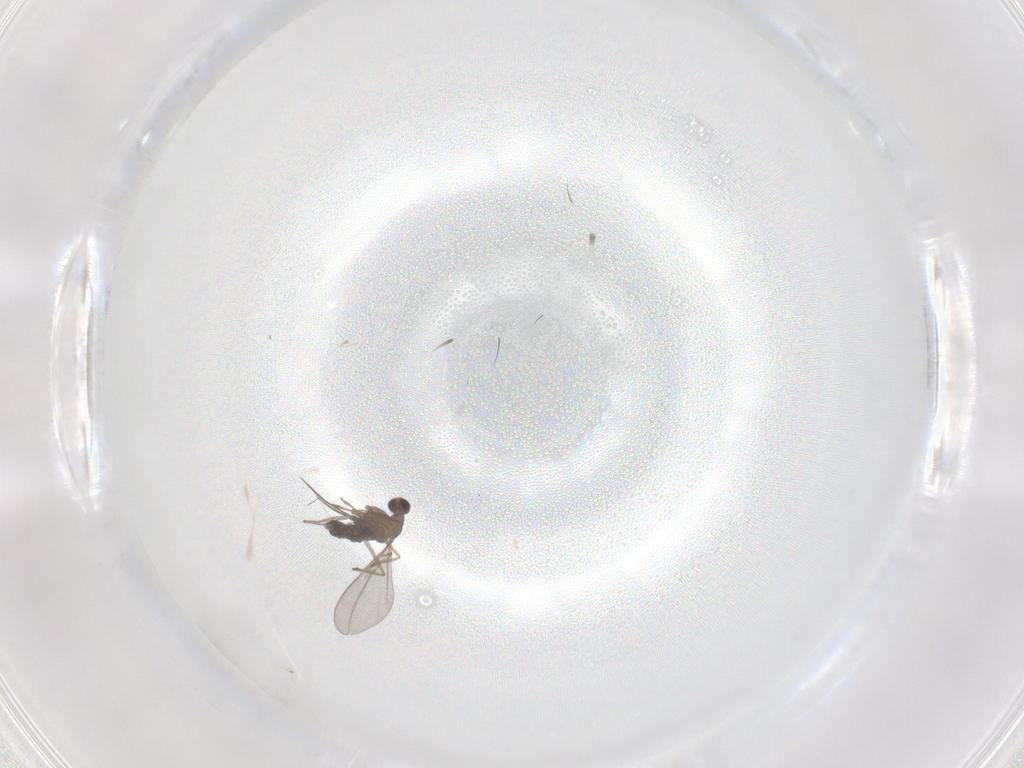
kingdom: Animalia
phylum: Arthropoda
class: Insecta
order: Diptera
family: Cecidomyiidae
